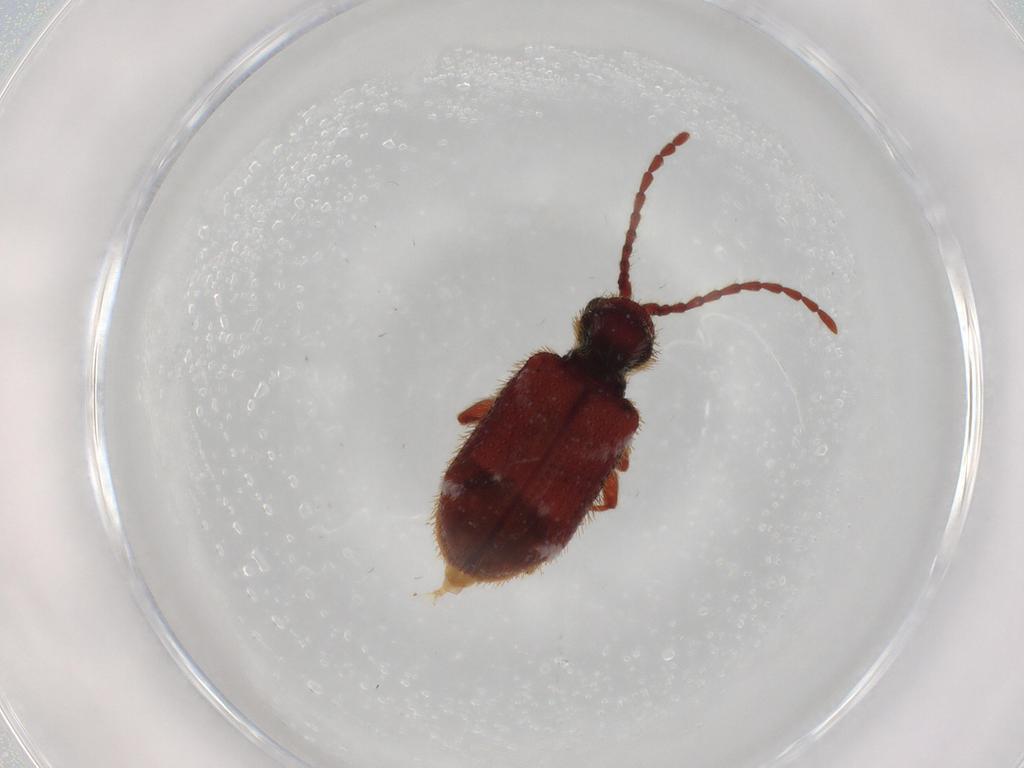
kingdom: Animalia
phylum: Arthropoda
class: Insecta
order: Coleoptera
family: Ptinidae
